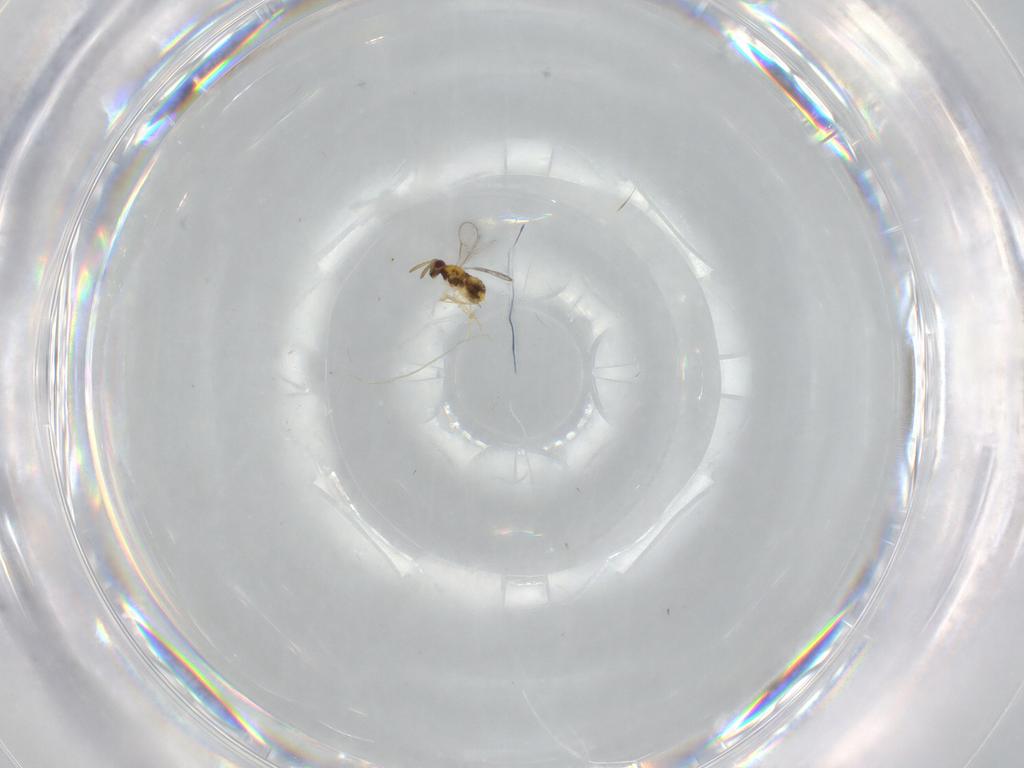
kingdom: Animalia
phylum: Arthropoda
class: Insecta
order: Hymenoptera
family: Aphelinidae
